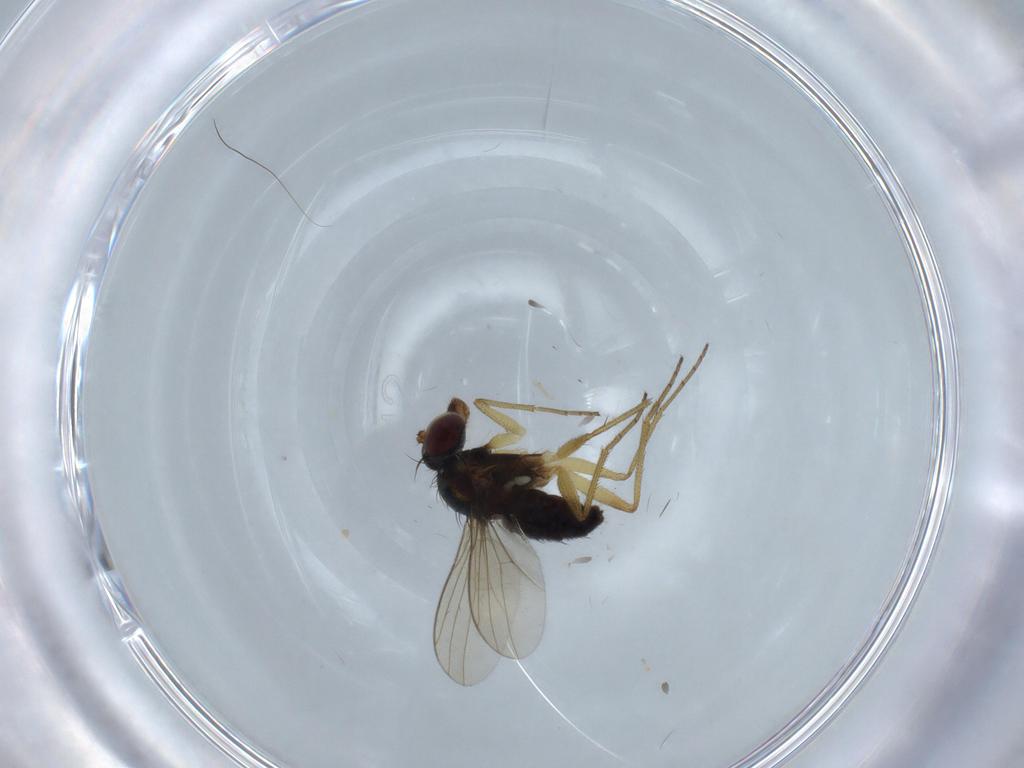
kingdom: Animalia
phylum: Arthropoda
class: Insecta
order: Diptera
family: Dolichopodidae
